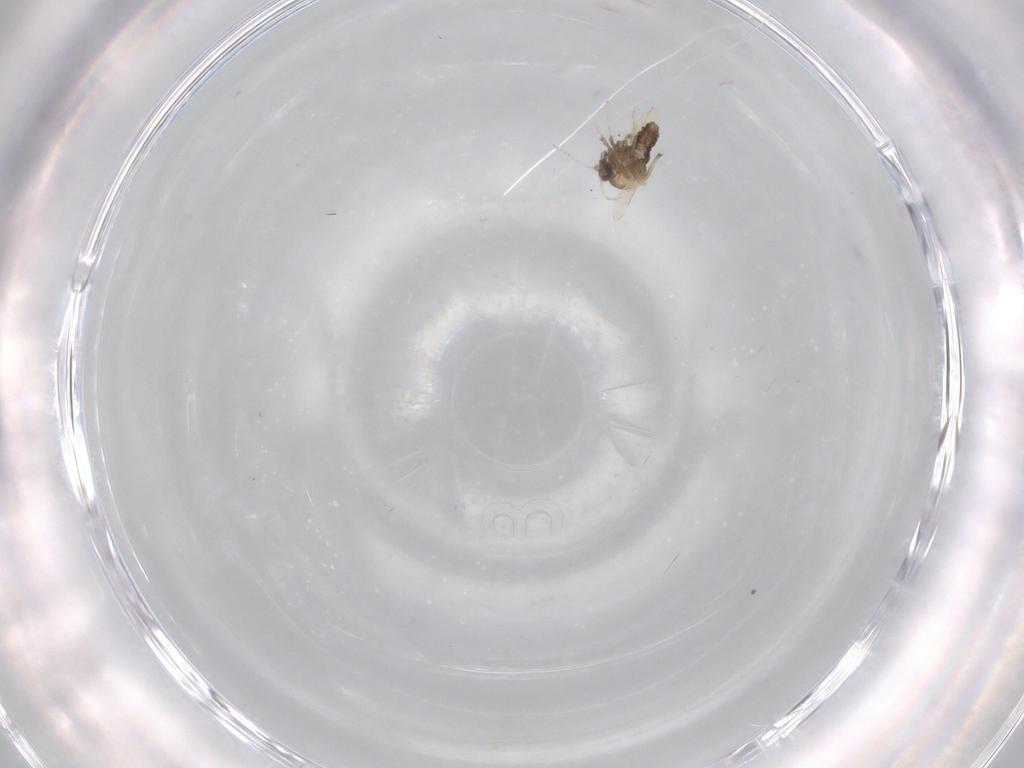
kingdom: Animalia
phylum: Arthropoda
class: Insecta
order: Diptera
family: Ceratopogonidae
